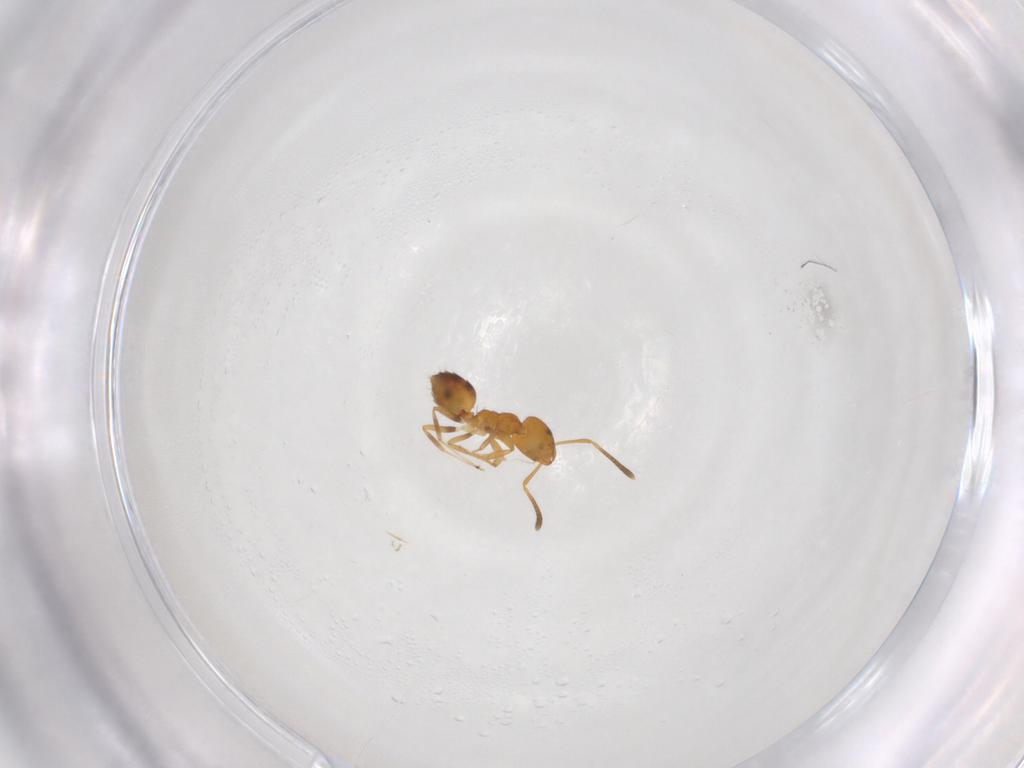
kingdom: Animalia
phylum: Arthropoda
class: Insecta
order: Hymenoptera
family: Formicidae
